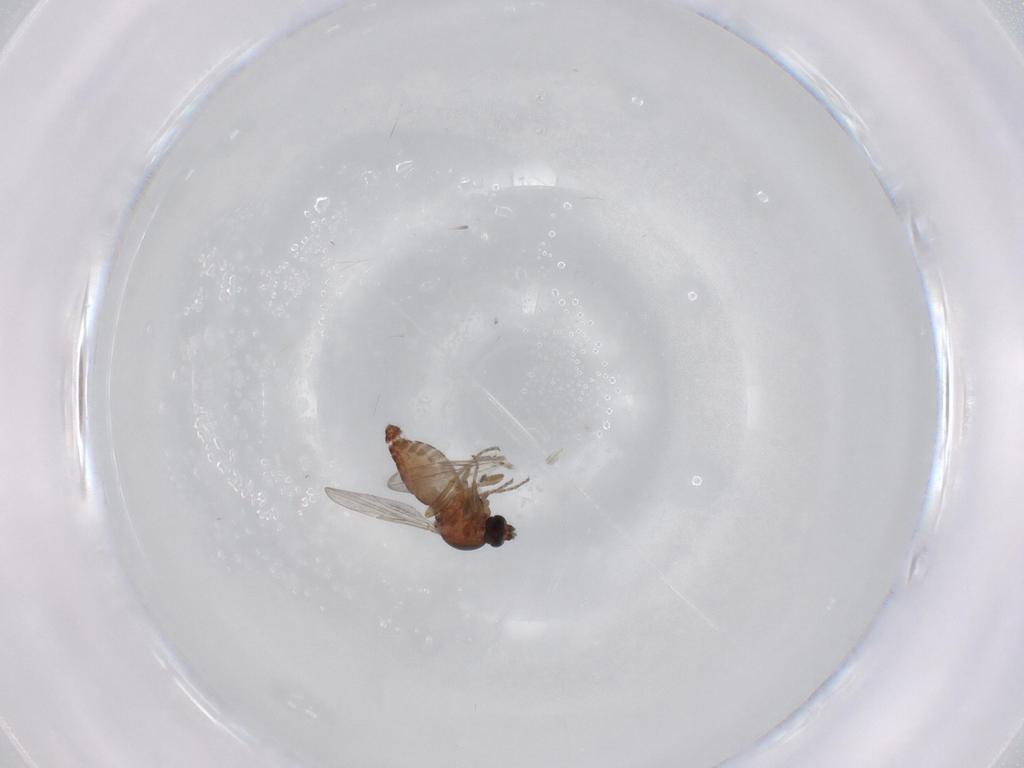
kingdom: Animalia
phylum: Arthropoda
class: Insecta
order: Diptera
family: Ceratopogonidae
